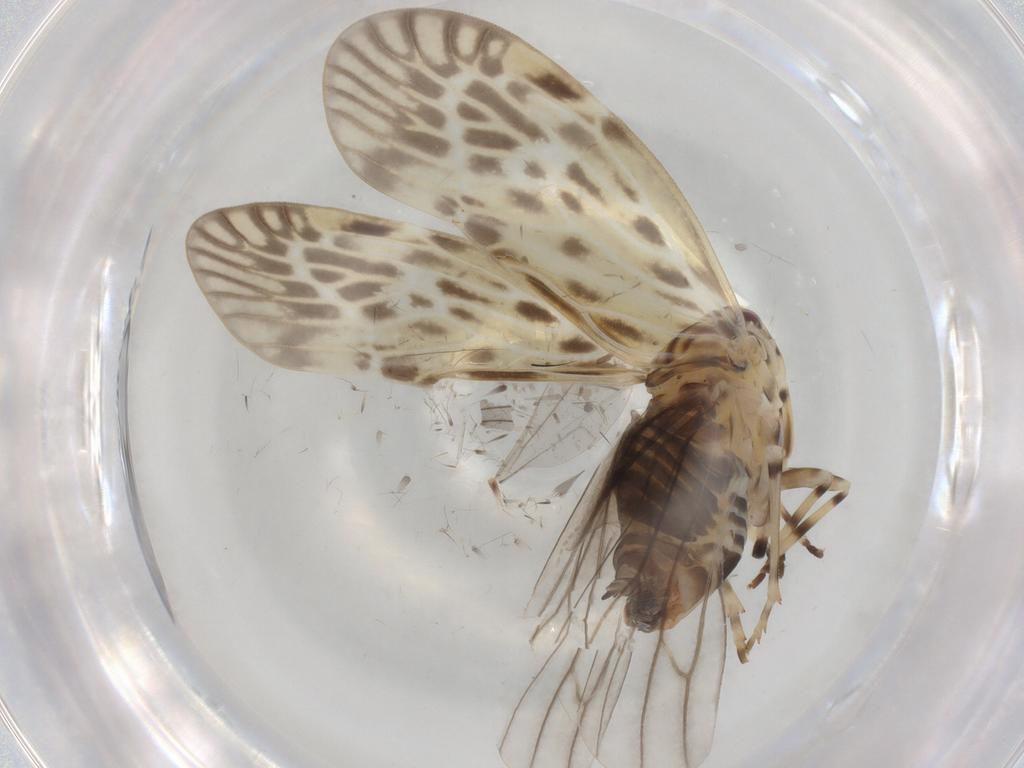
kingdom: Animalia
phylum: Arthropoda
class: Insecta
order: Hemiptera
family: Derbidae
